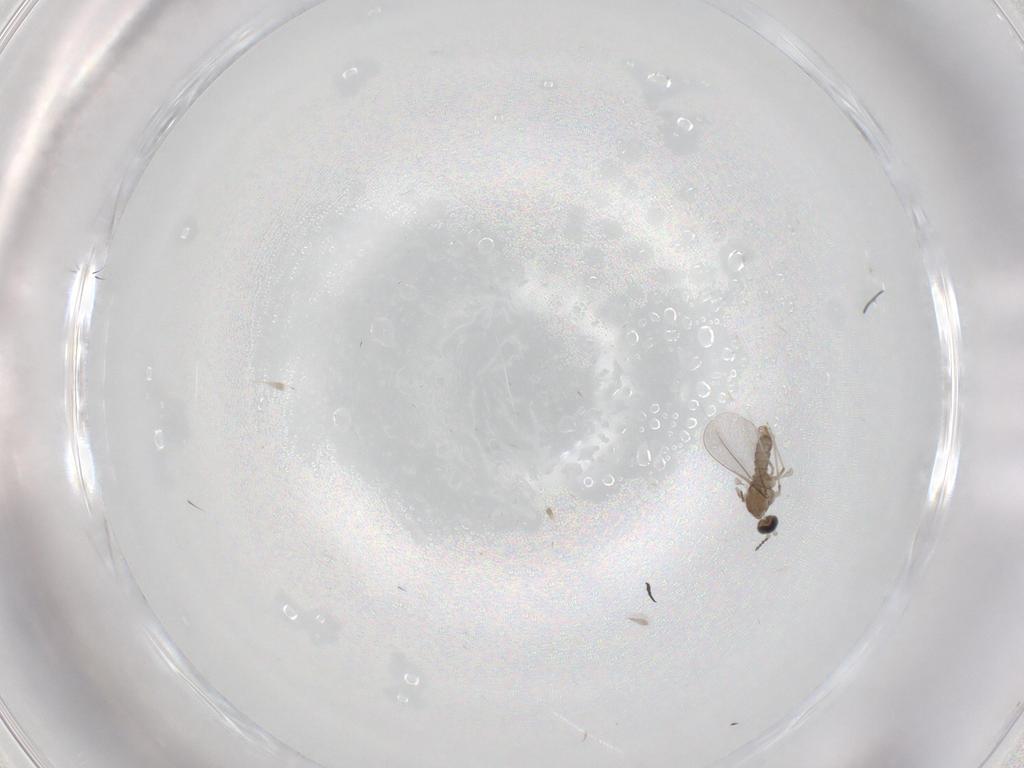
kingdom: Animalia
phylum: Arthropoda
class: Insecta
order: Diptera
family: Cecidomyiidae
